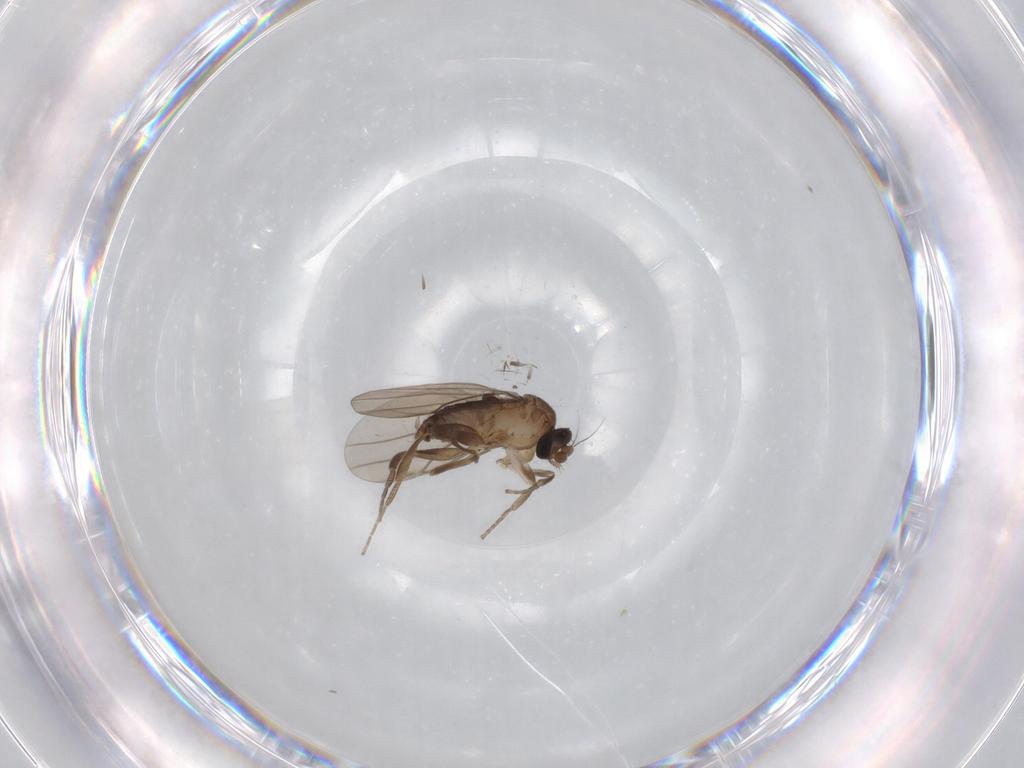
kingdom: Animalia
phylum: Arthropoda
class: Insecta
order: Diptera
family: Ditomyiidae
